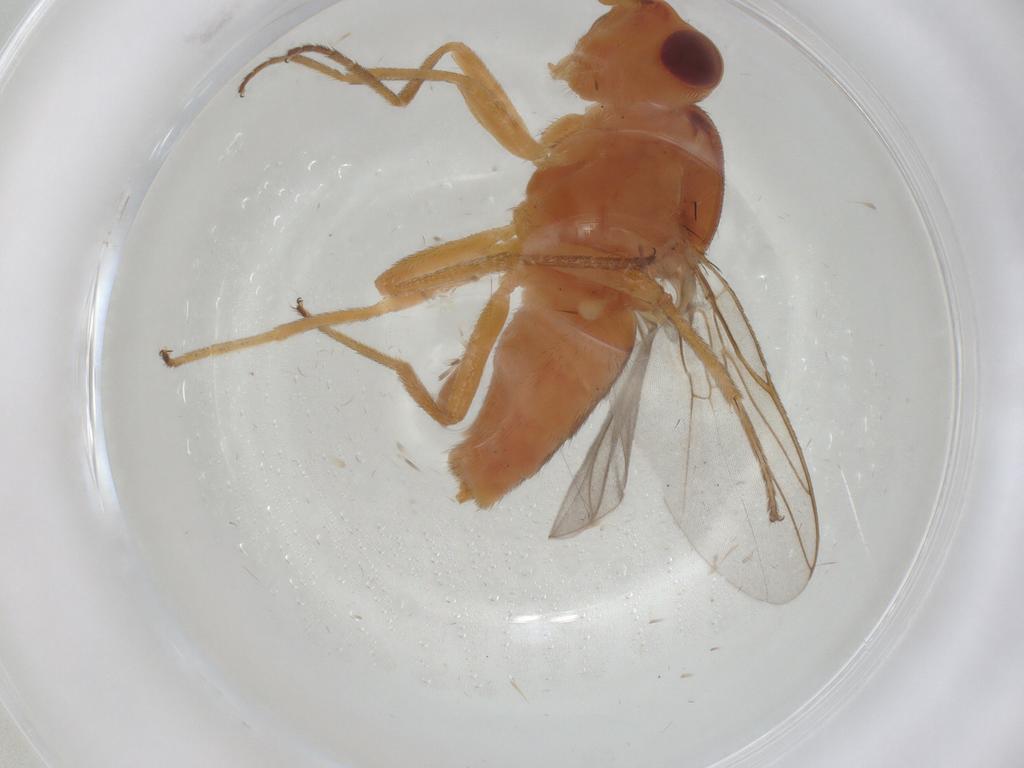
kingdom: Animalia
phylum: Arthropoda
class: Insecta
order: Diptera
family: Chloropidae
